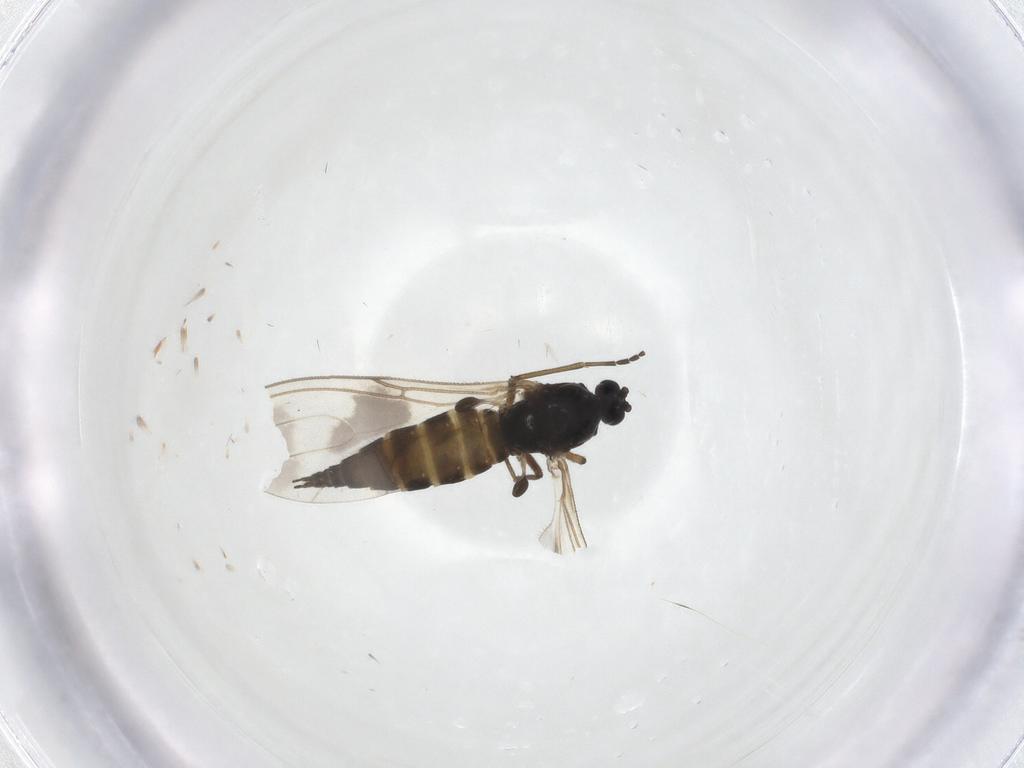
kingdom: Animalia
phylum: Arthropoda
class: Insecta
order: Diptera
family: Sciaridae
